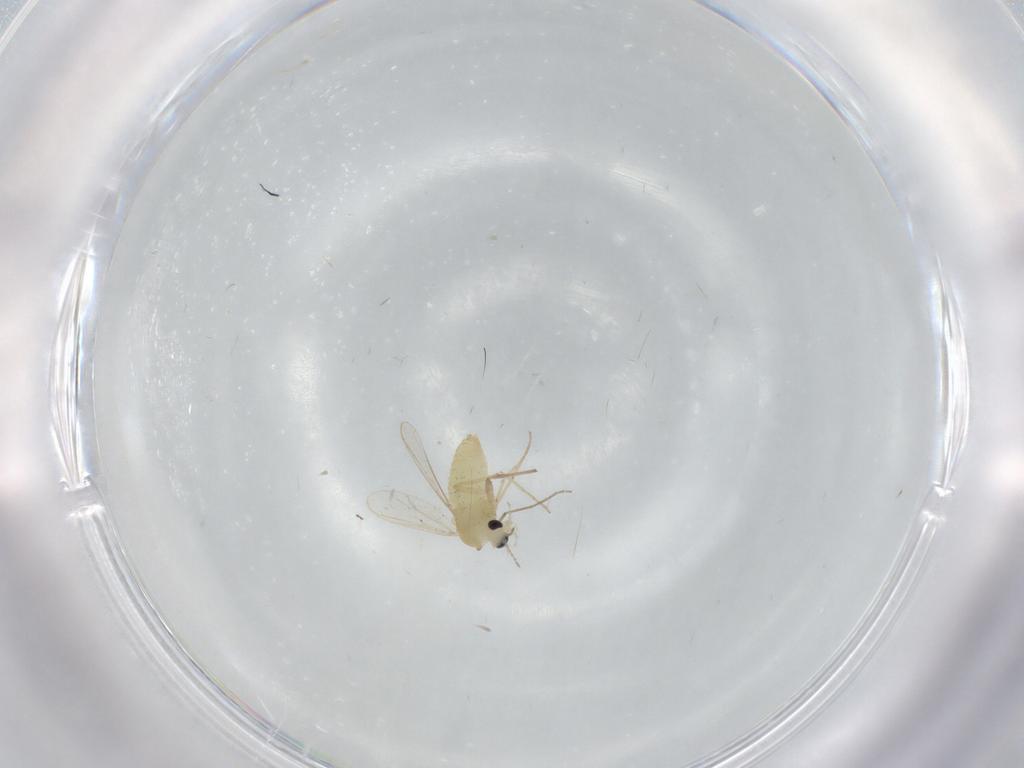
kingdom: Animalia
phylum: Arthropoda
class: Insecta
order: Diptera
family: Chironomidae
